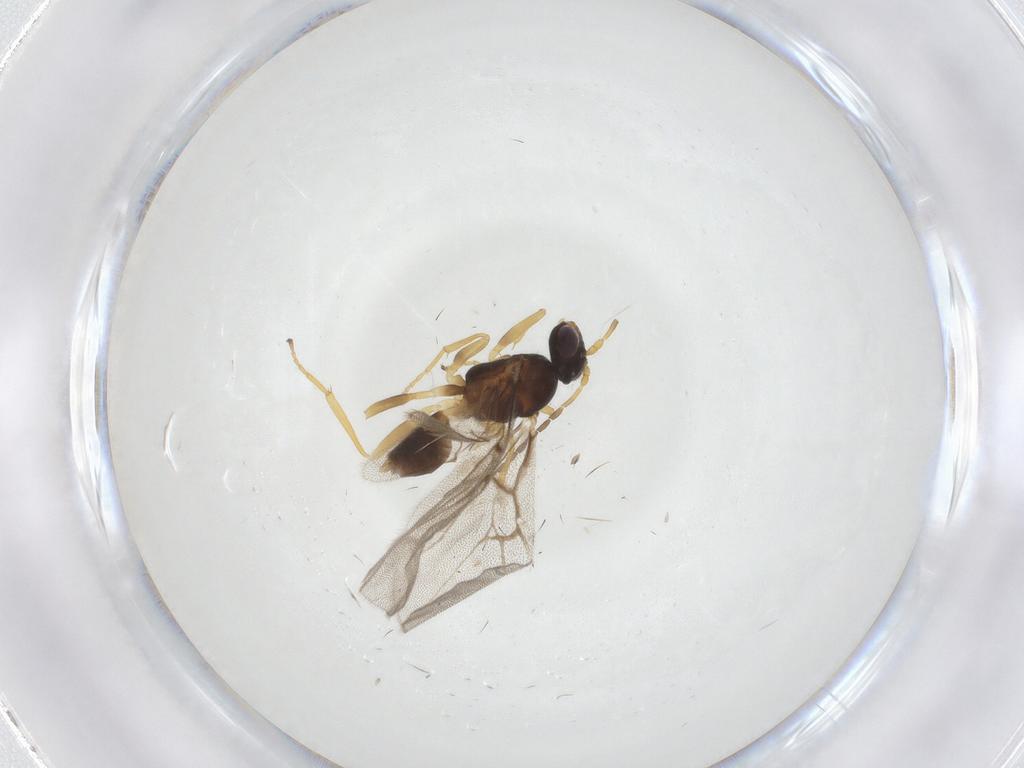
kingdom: Animalia
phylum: Arthropoda
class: Insecta
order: Hymenoptera
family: Cynipidae
